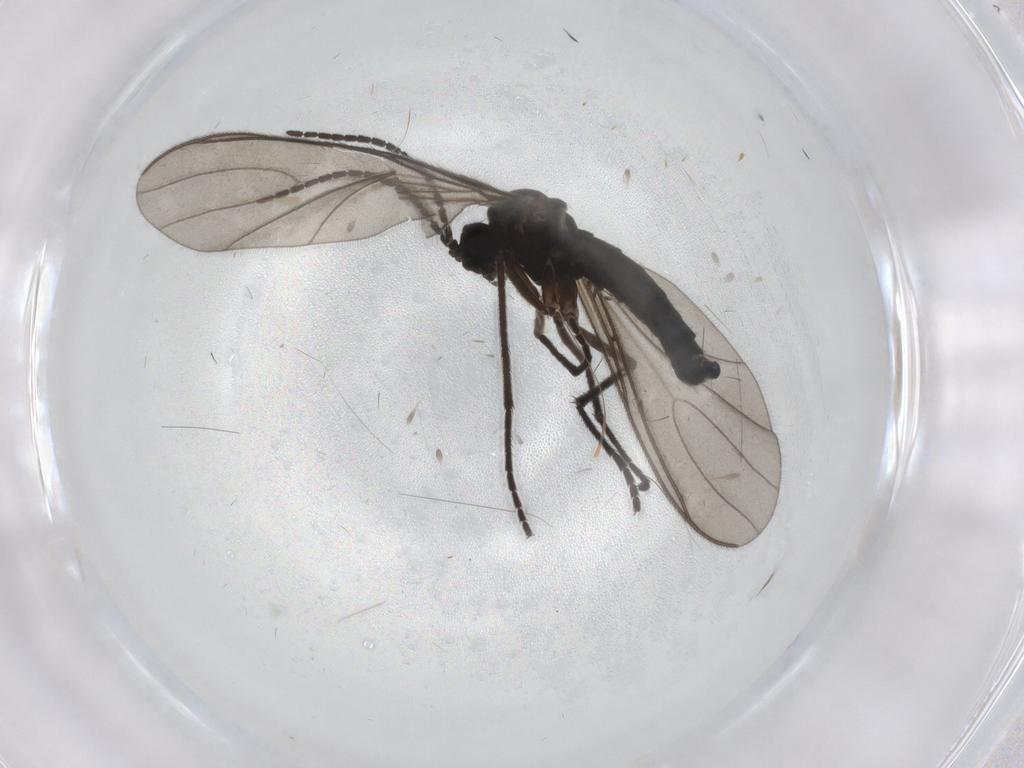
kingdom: Animalia
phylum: Arthropoda
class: Insecta
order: Diptera
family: Sciaridae
